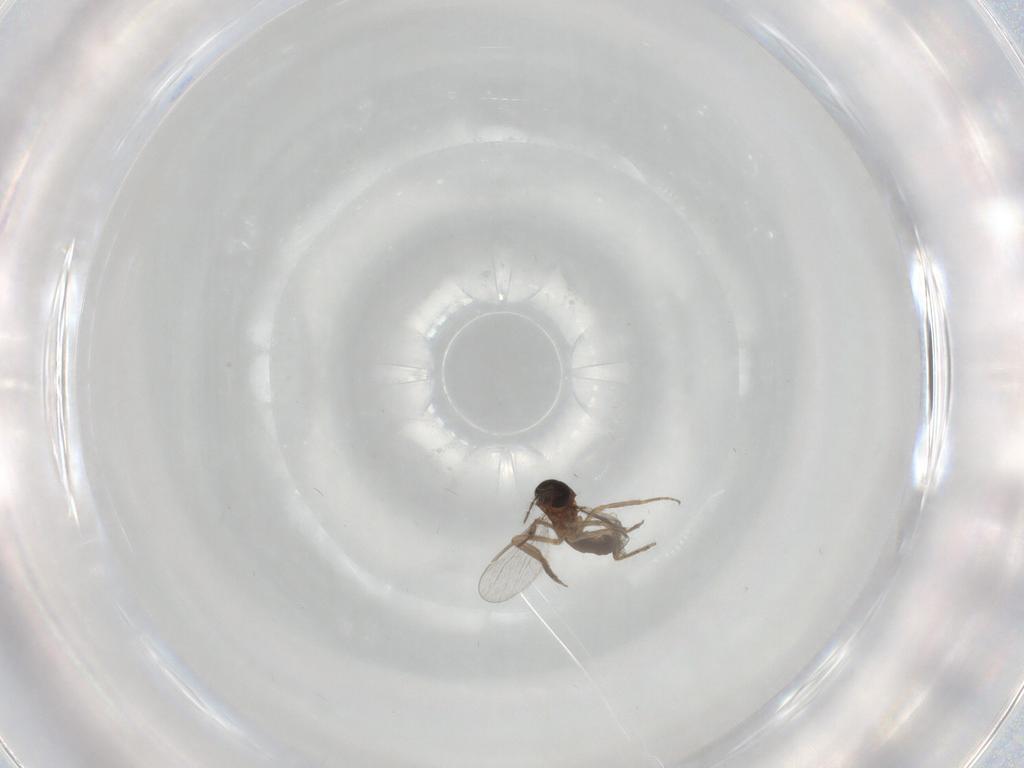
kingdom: Animalia
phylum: Arthropoda
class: Insecta
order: Diptera
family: Ceratopogonidae
